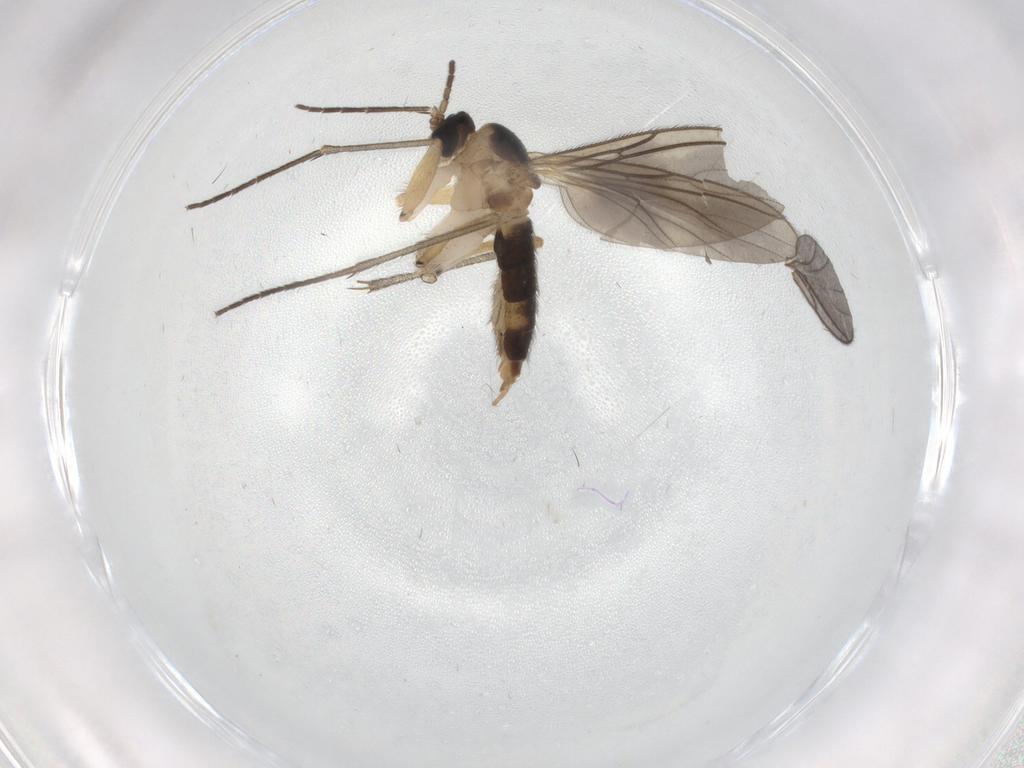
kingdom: Animalia
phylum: Arthropoda
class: Insecta
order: Diptera
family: Sciaridae
